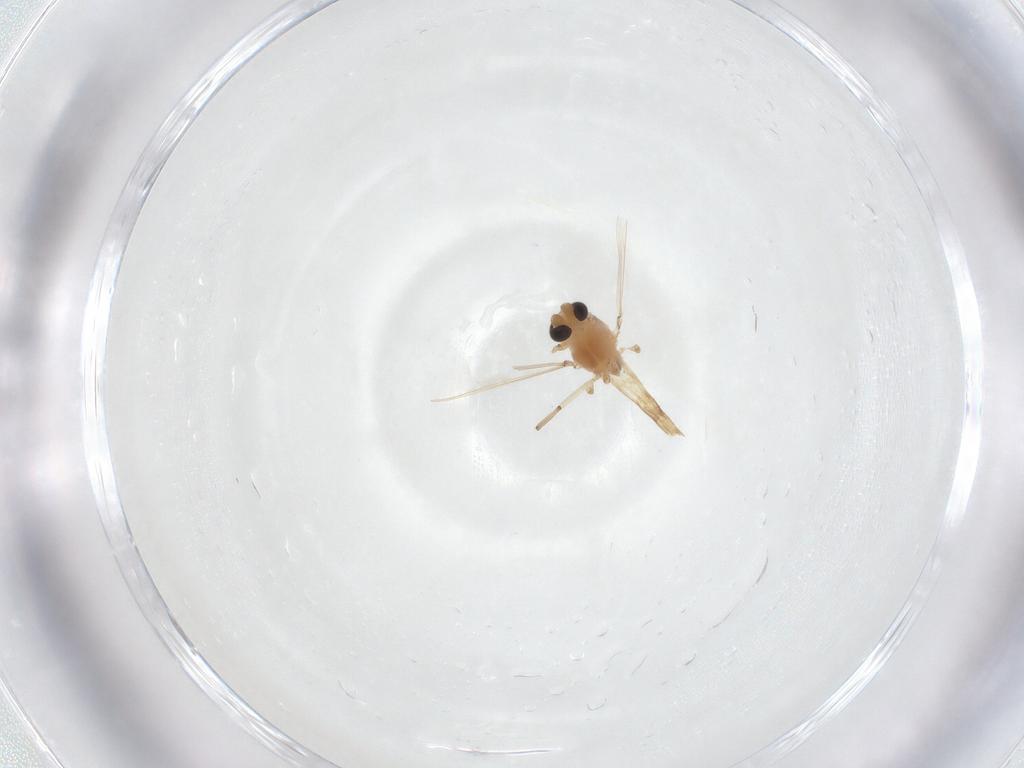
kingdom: Animalia
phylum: Arthropoda
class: Insecta
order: Diptera
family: Chironomidae
